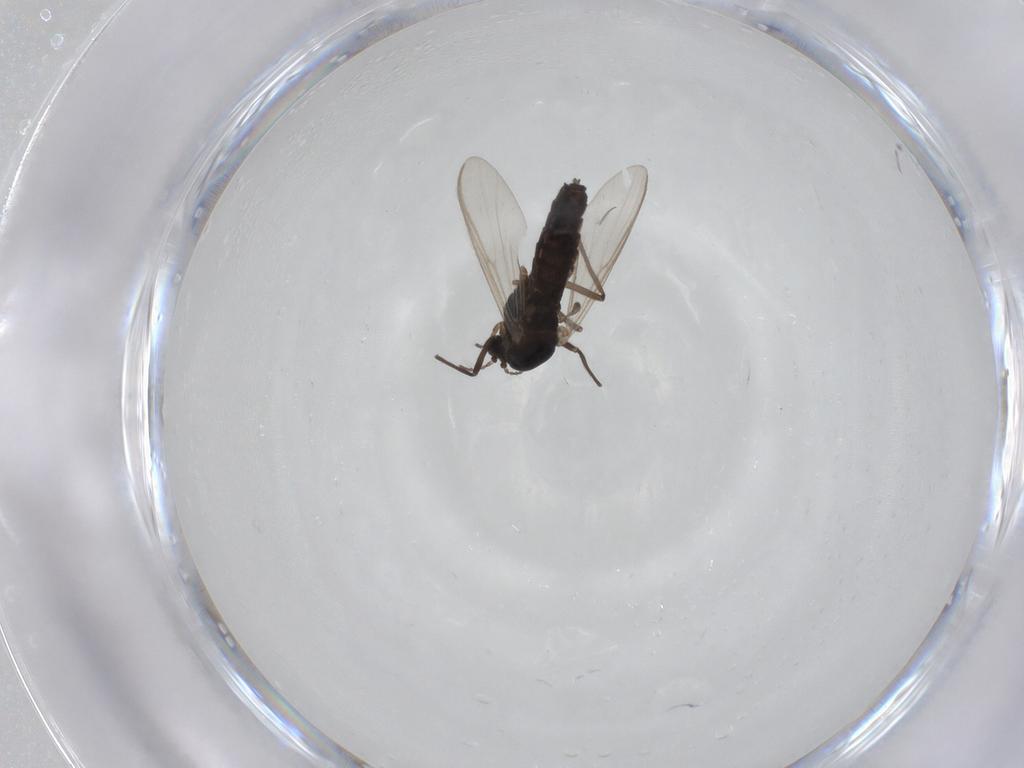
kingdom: Animalia
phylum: Arthropoda
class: Insecta
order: Diptera
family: Chironomidae
